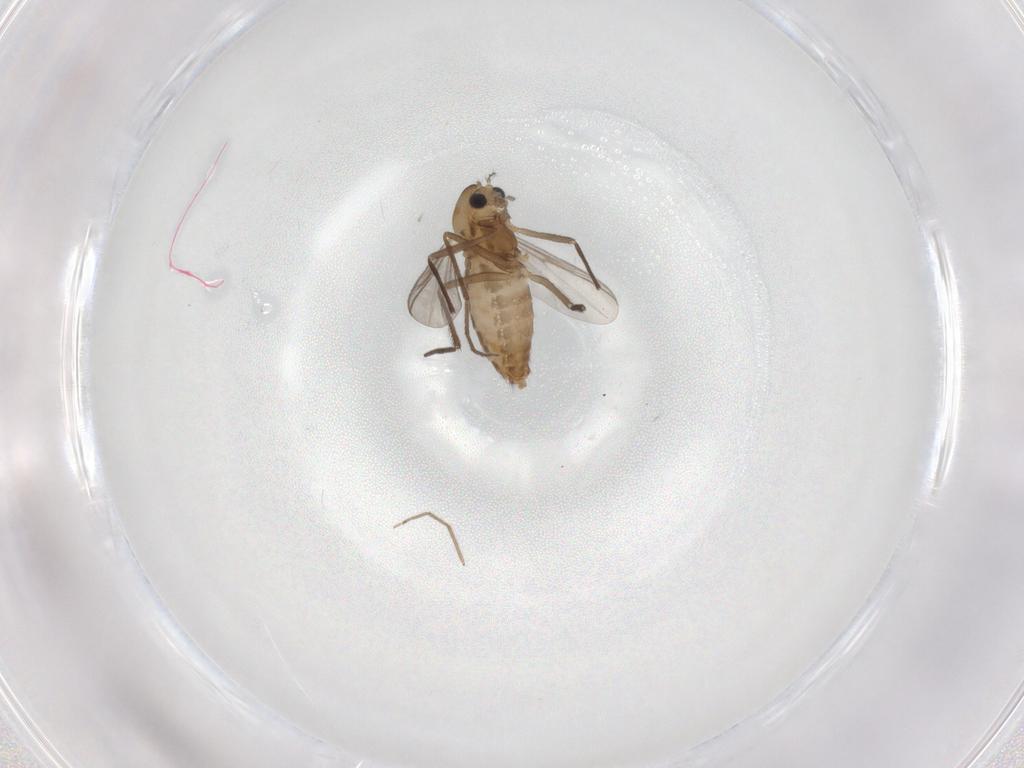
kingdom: Animalia
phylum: Arthropoda
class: Insecta
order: Diptera
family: Chironomidae
